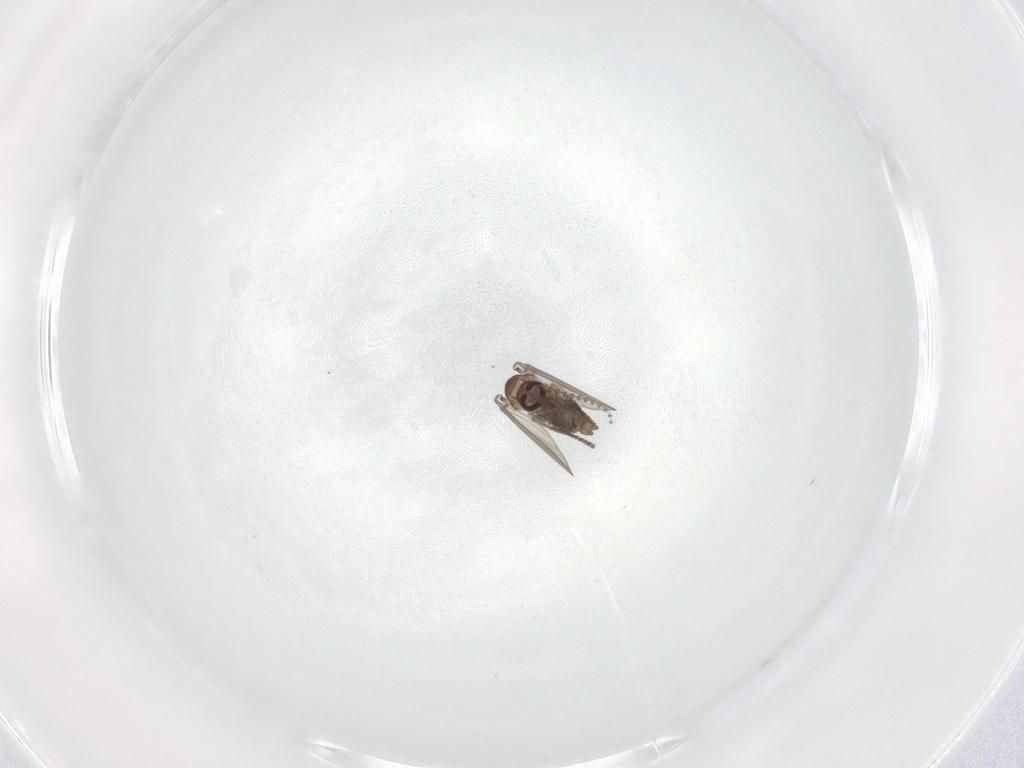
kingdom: Animalia
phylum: Arthropoda
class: Insecta
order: Diptera
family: Psychodidae
